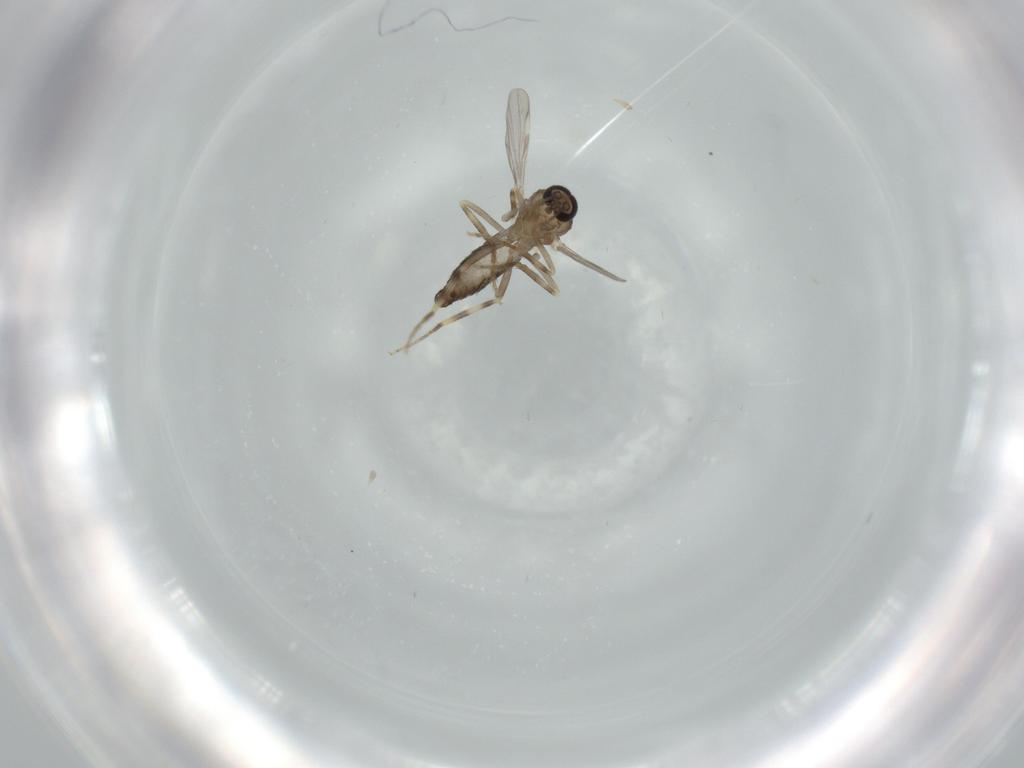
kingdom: Animalia
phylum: Arthropoda
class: Insecta
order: Diptera
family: Ceratopogonidae
